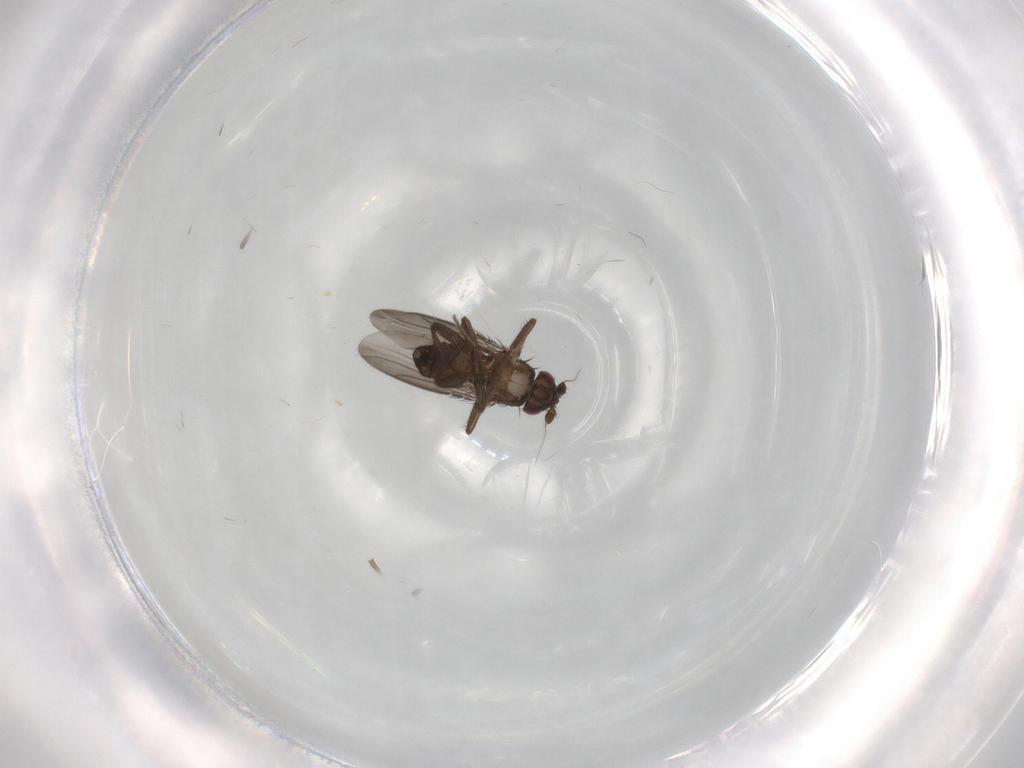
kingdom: Animalia
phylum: Arthropoda
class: Insecta
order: Diptera
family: Sphaeroceridae
